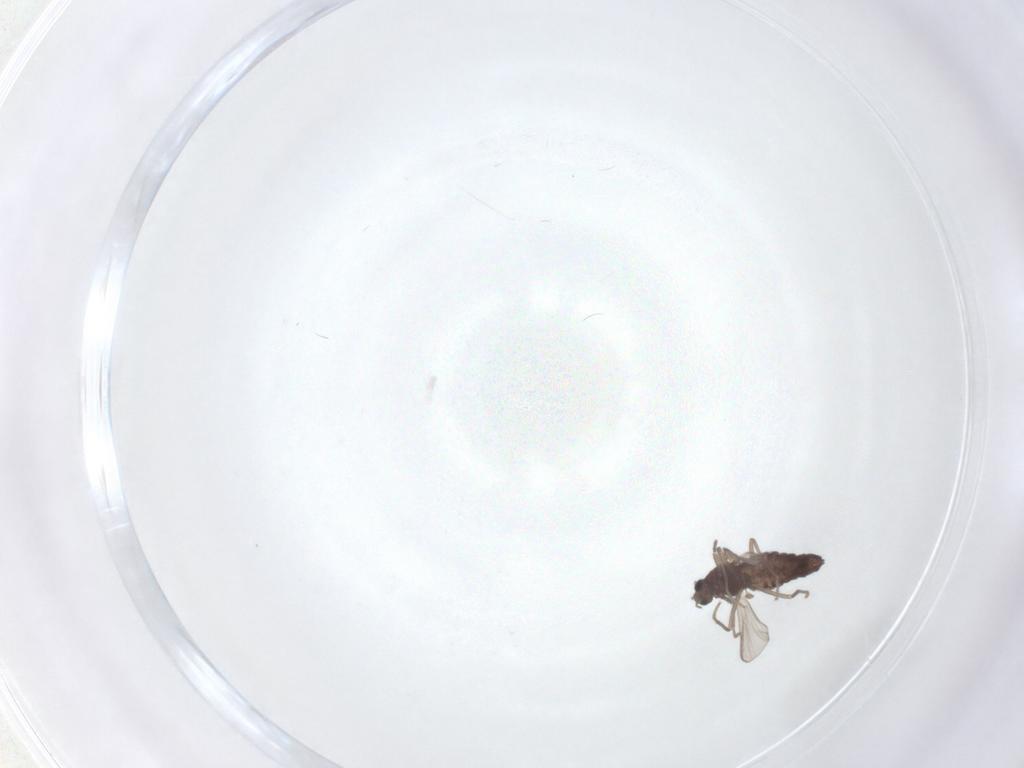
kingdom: Animalia
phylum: Arthropoda
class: Insecta
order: Diptera
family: Chironomidae
